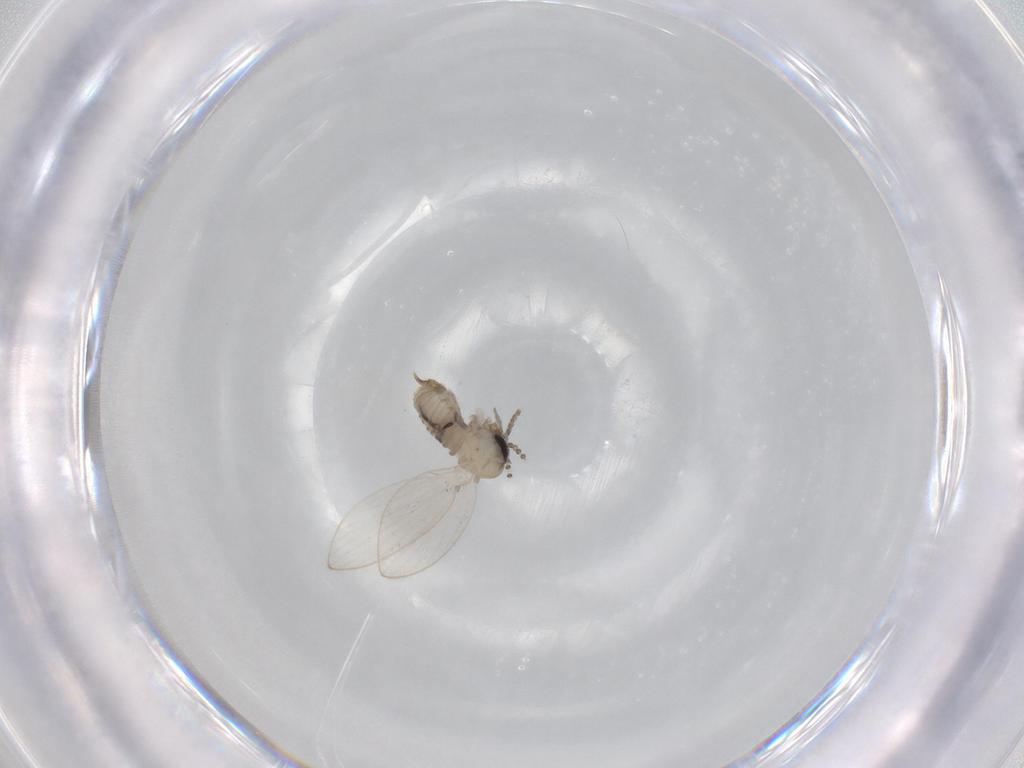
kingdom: Animalia
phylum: Arthropoda
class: Insecta
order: Diptera
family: Psychodidae
